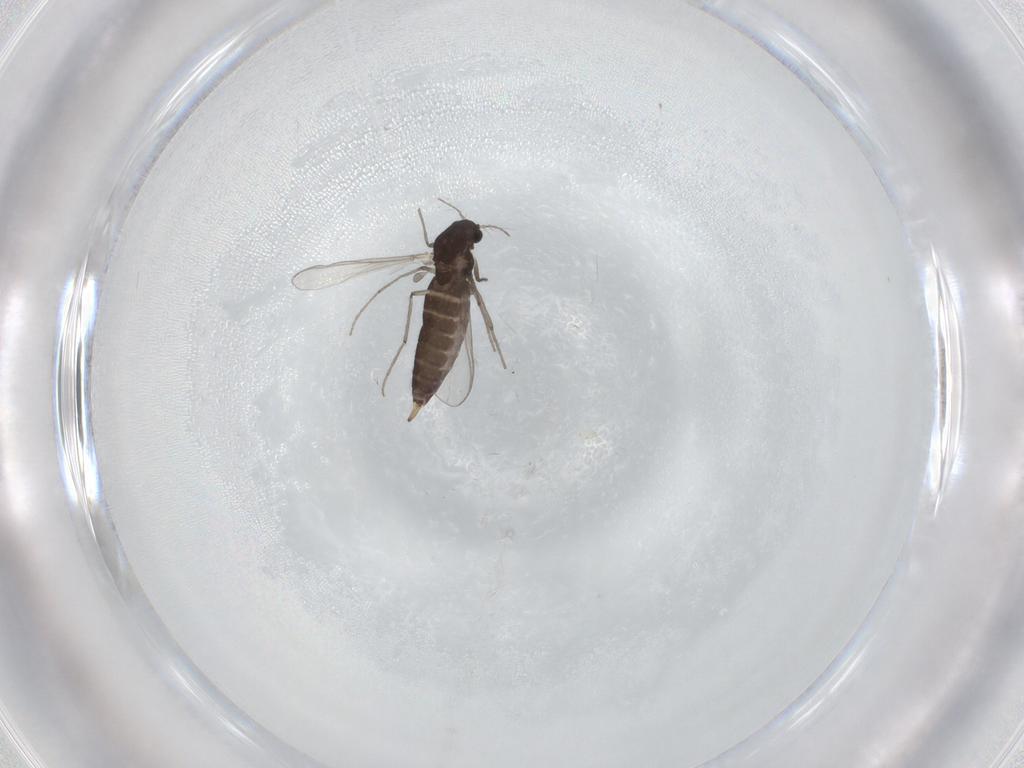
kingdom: Animalia
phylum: Arthropoda
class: Insecta
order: Diptera
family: Chironomidae
